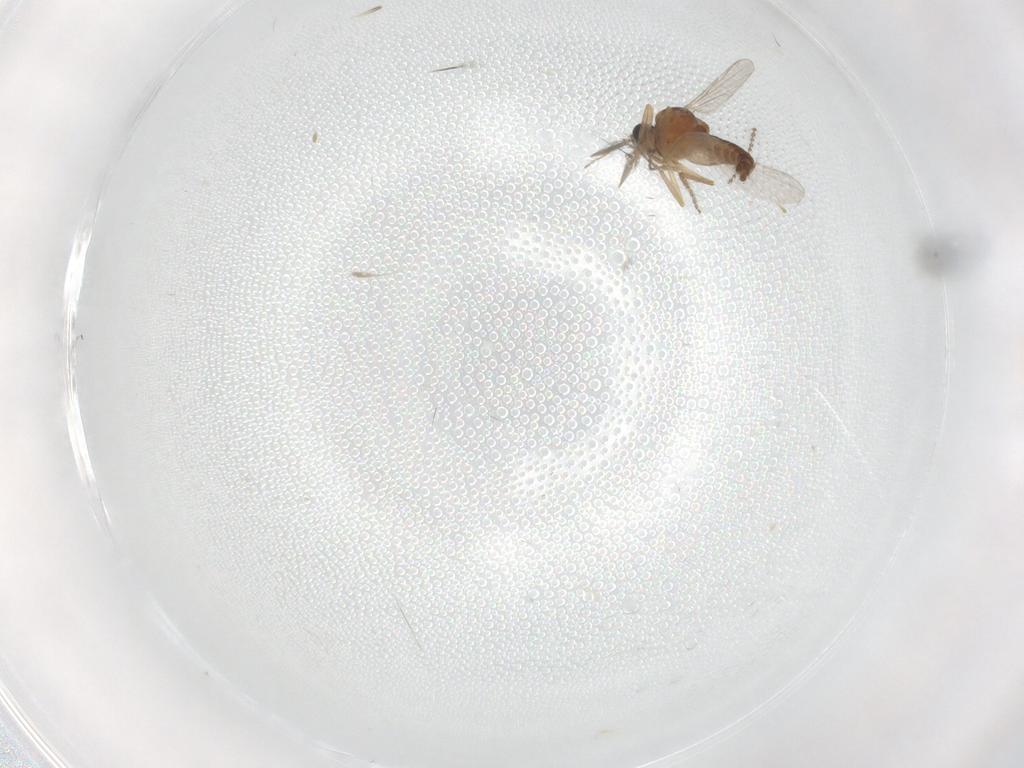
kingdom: Animalia
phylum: Arthropoda
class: Insecta
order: Diptera
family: Ceratopogonidae
